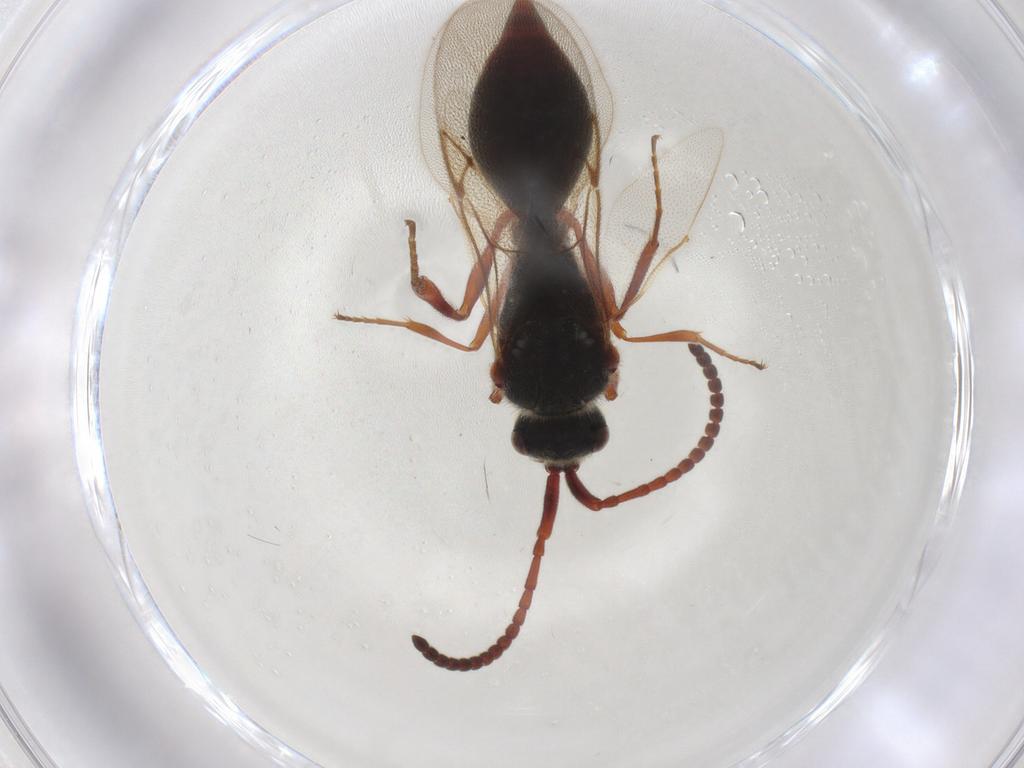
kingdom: Animalia
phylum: Arthropoda
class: Insecta
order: Hymenoptera
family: Diapriidae
